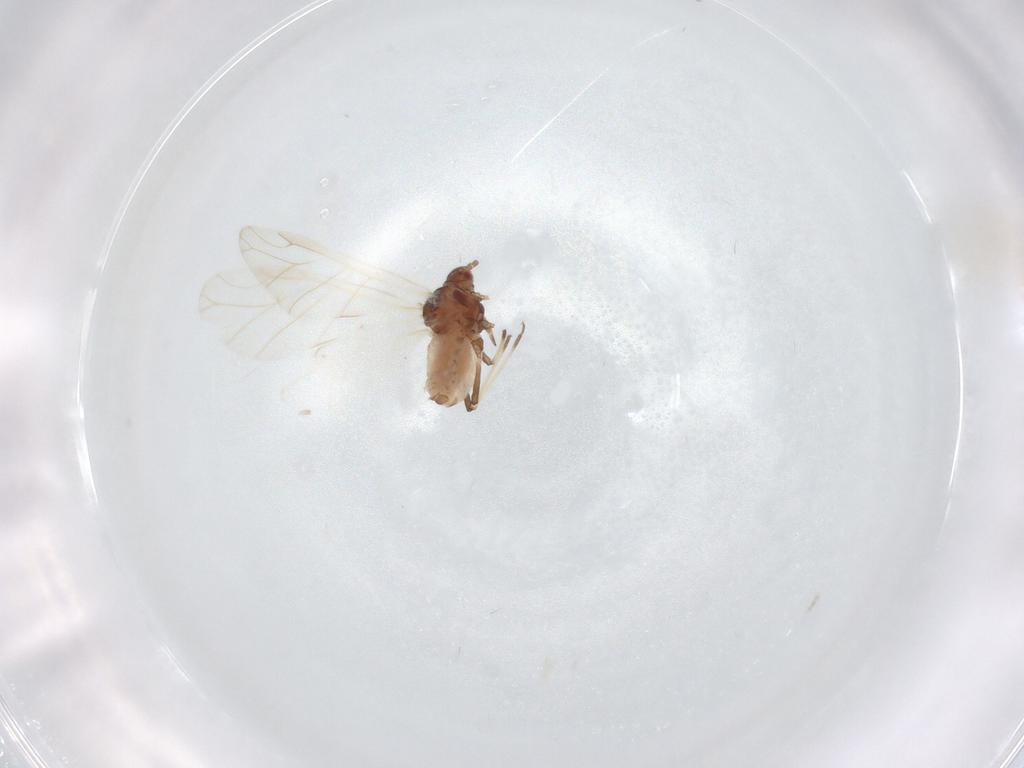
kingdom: Animalia
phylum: Arthropoda
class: Insecta
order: Hemiptera
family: Aphididae
